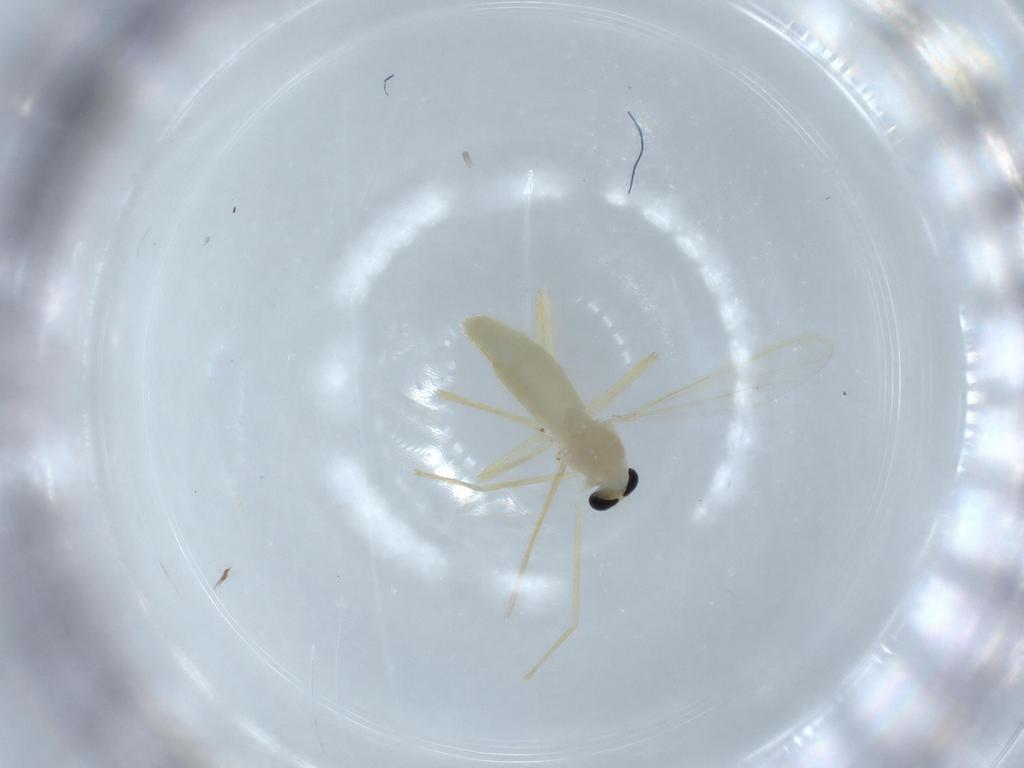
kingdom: Animalia
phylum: Arthropoda
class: Insecta
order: Diptera
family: Chironomidae
